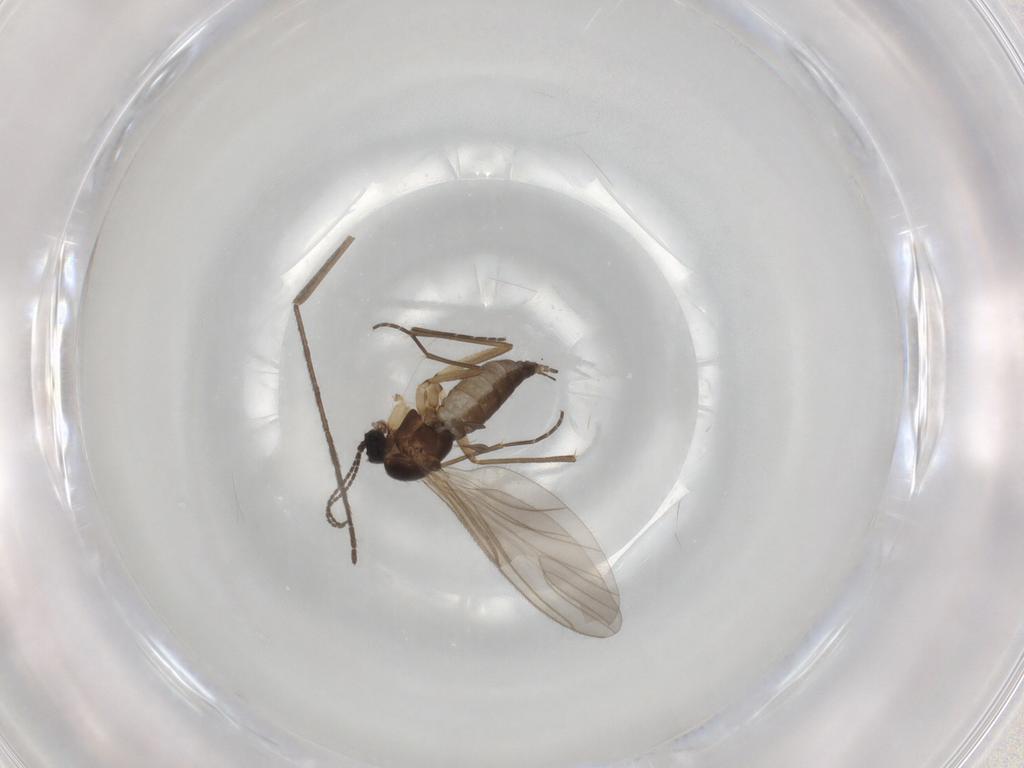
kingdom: Animalia
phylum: Arthropoda
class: Insecta
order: Diptera
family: Sciaridae
